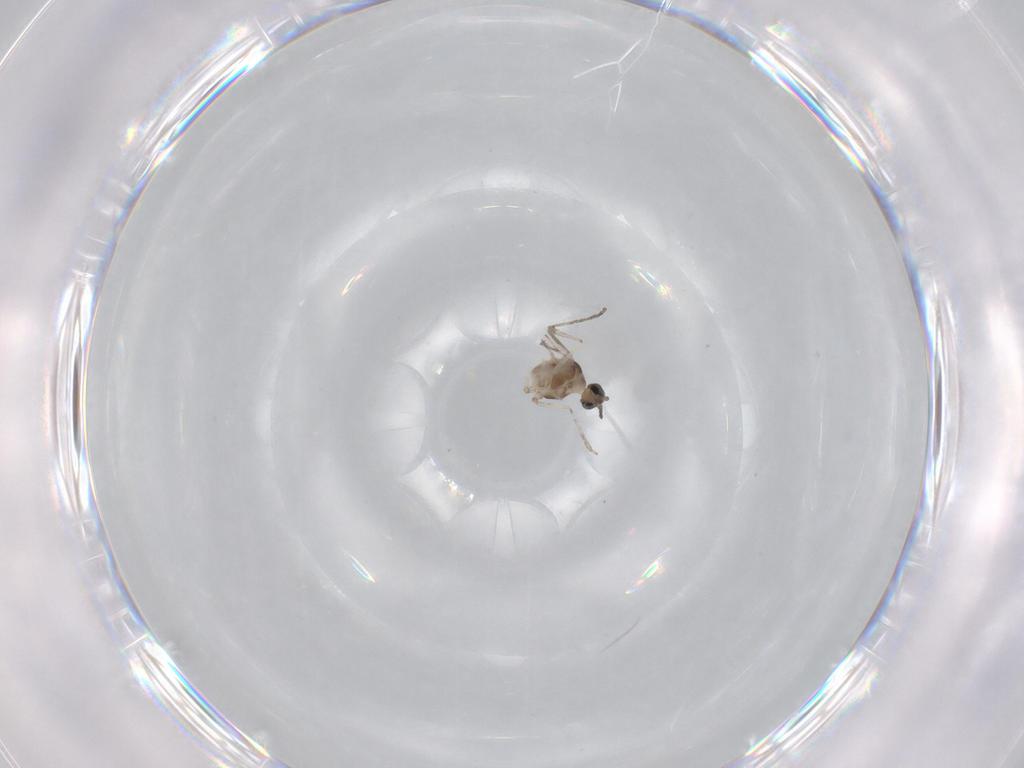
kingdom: Animalia
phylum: Arthropoda
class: Insecta
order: Diptera
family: Cecidomyiidae
